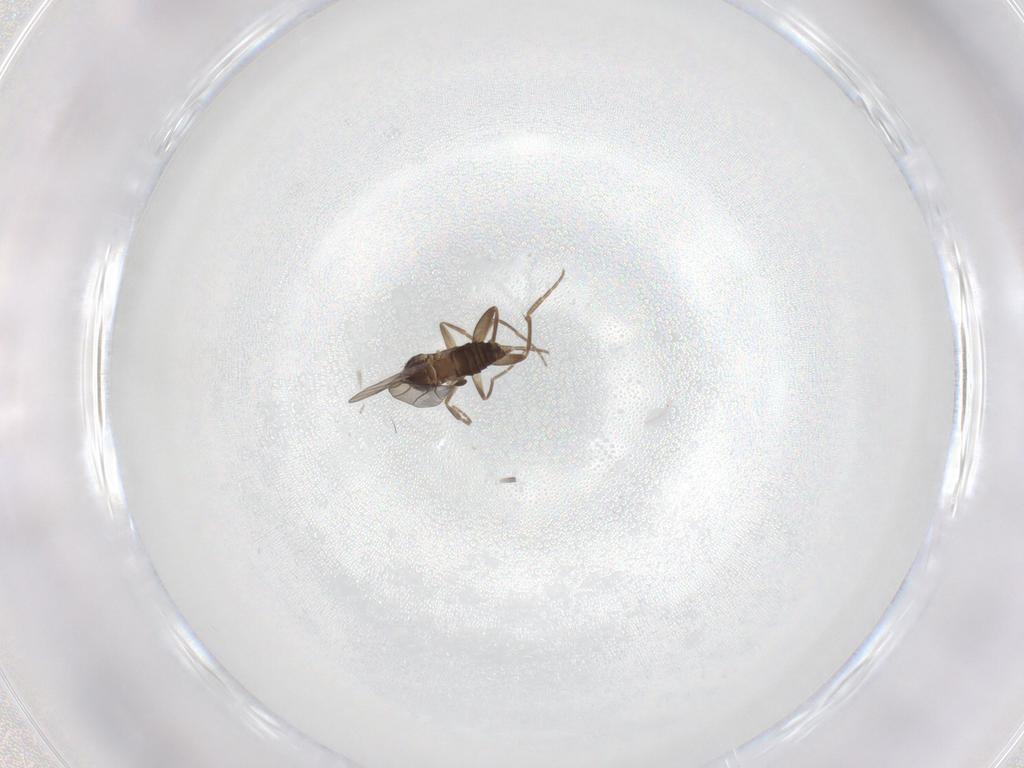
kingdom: Animalia
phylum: Arthropoda
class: Insecta
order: Diptera
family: Phoridae
